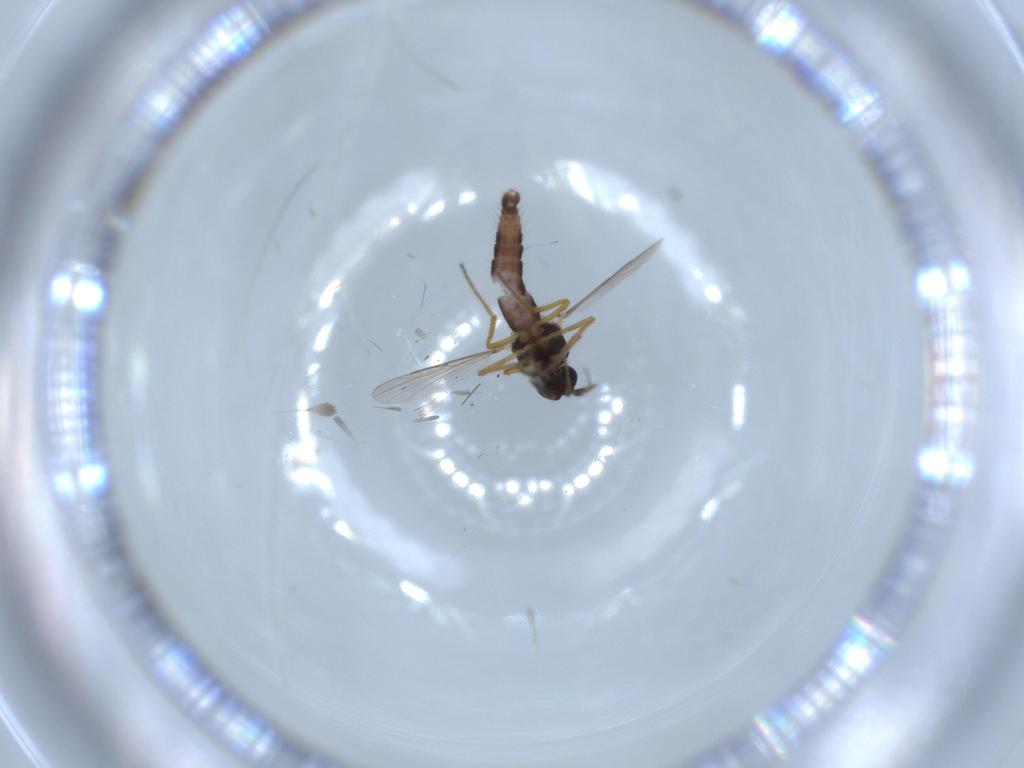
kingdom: Animalia
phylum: Arthropoda
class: Insecta
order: Diptera
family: Ceratopogonidae
